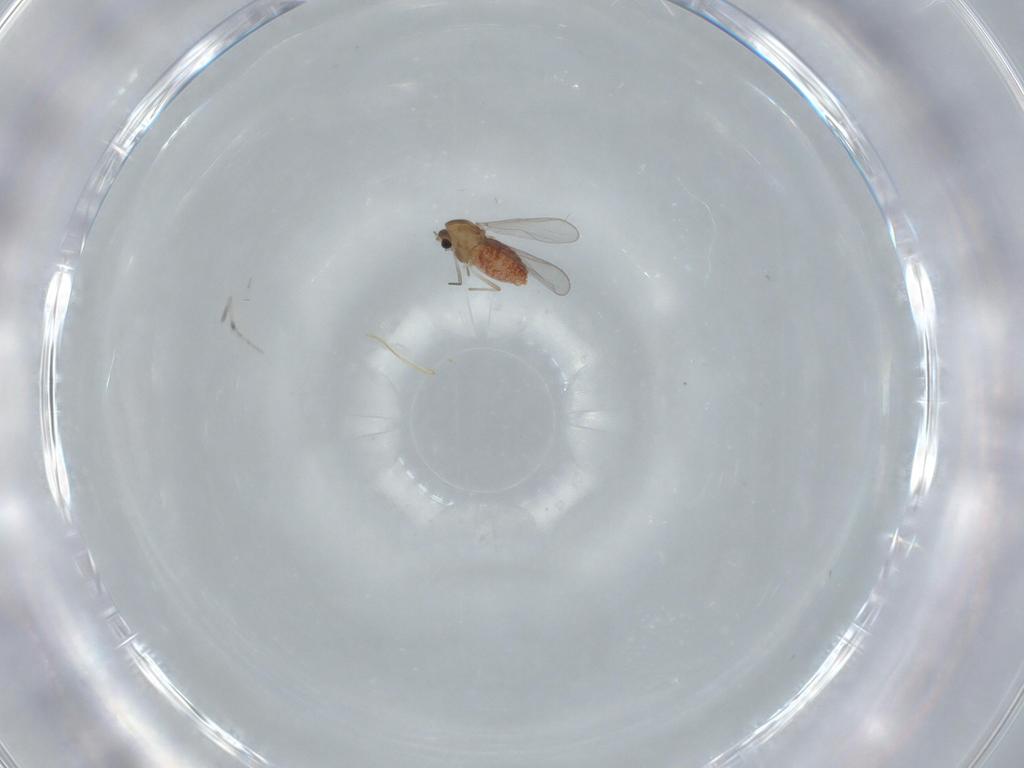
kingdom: Animalia
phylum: Arthropoda
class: Insecta
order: Diptera
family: Chironomidae
